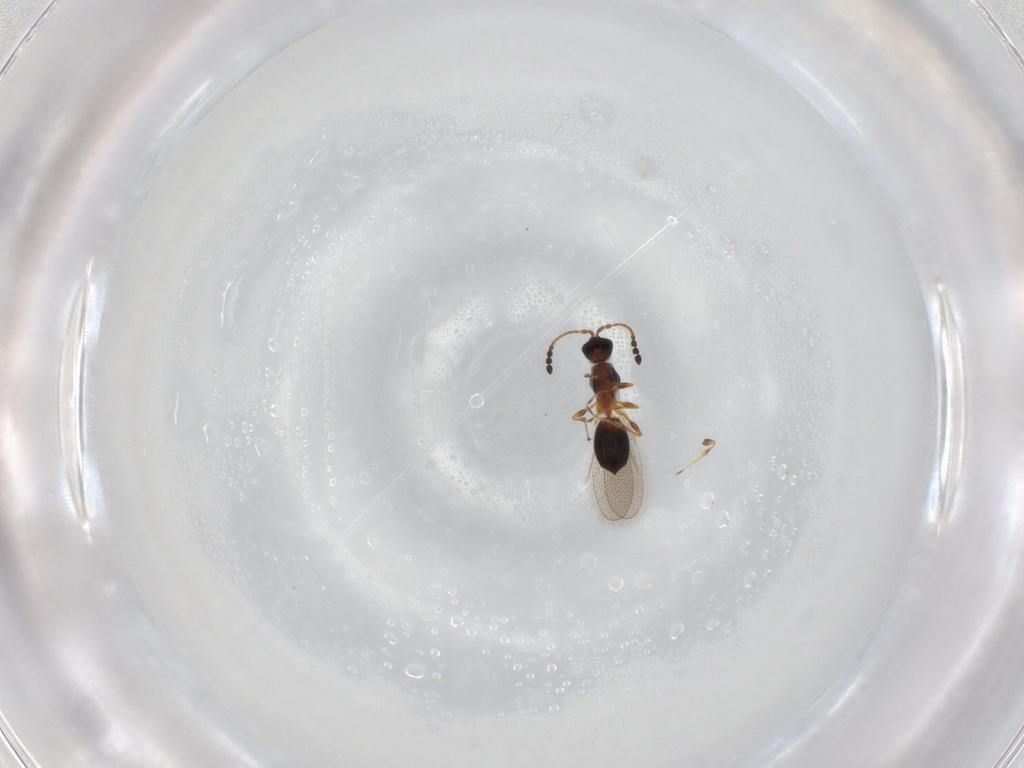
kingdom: Animalia
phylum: Arthropoda
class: Insecta
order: Hymenoptera
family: Diapriidae
